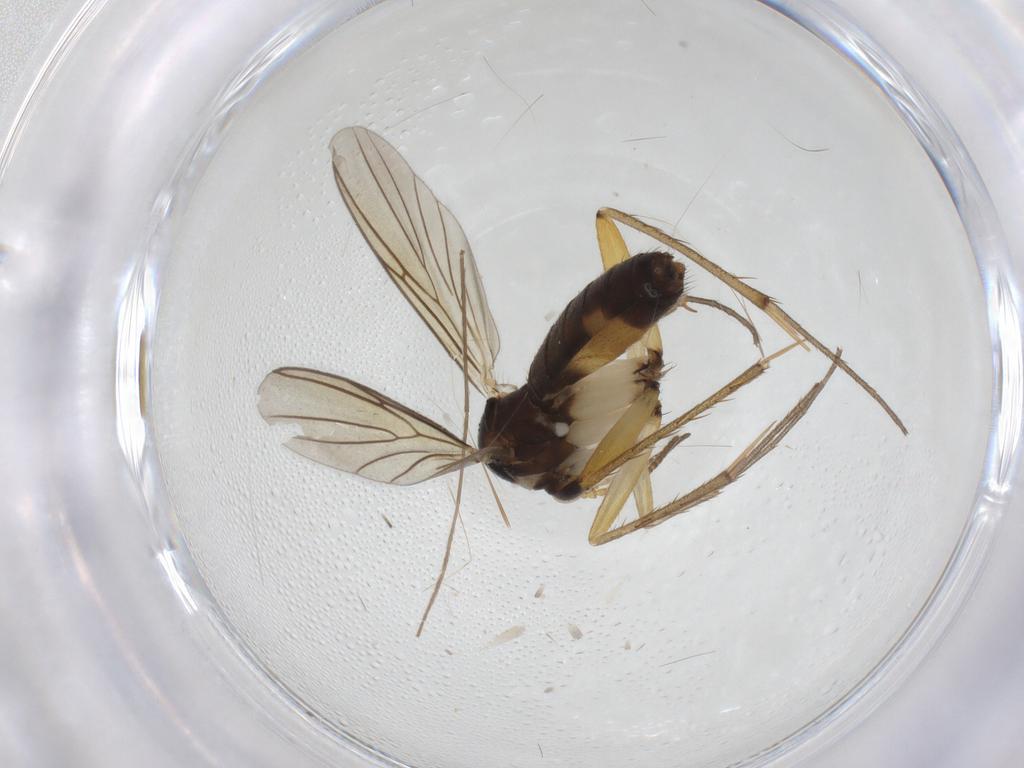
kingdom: Animalia
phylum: Arthropoda
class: Insecta
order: Diptera
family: Mycetophilidae
